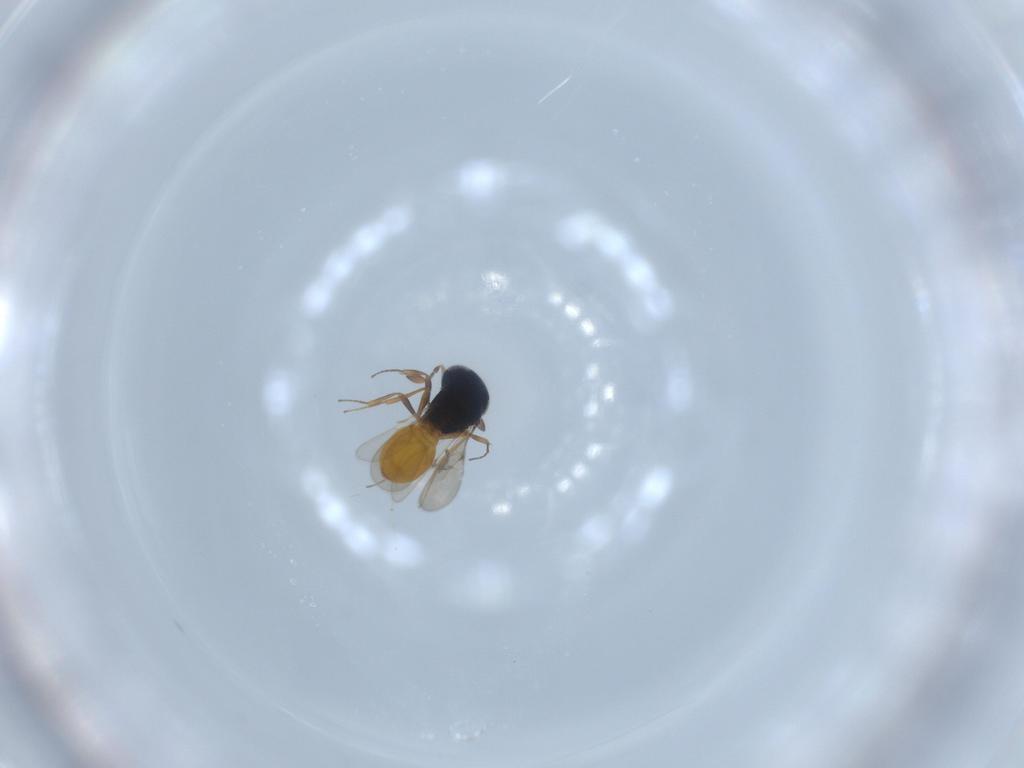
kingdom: Animalia
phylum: Arthropoda
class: Insecta
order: Hymenoptera
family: Scelionidae
